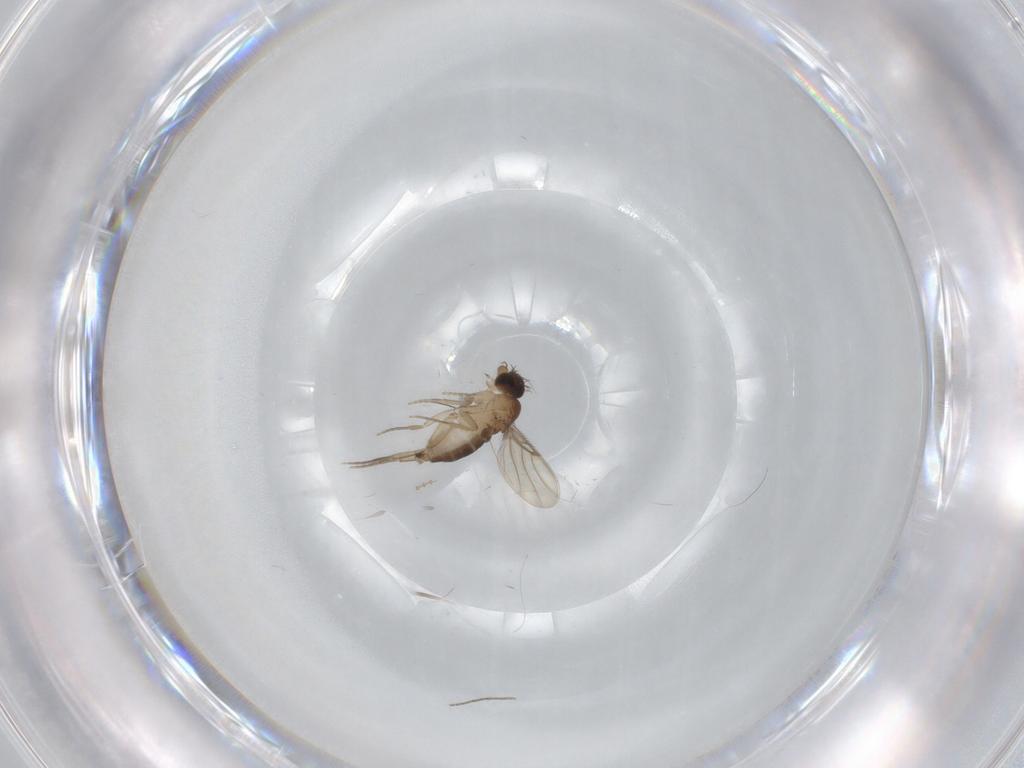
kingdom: Animalia
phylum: Arthropoda
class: Insecta
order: Diptera
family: Phoridae
